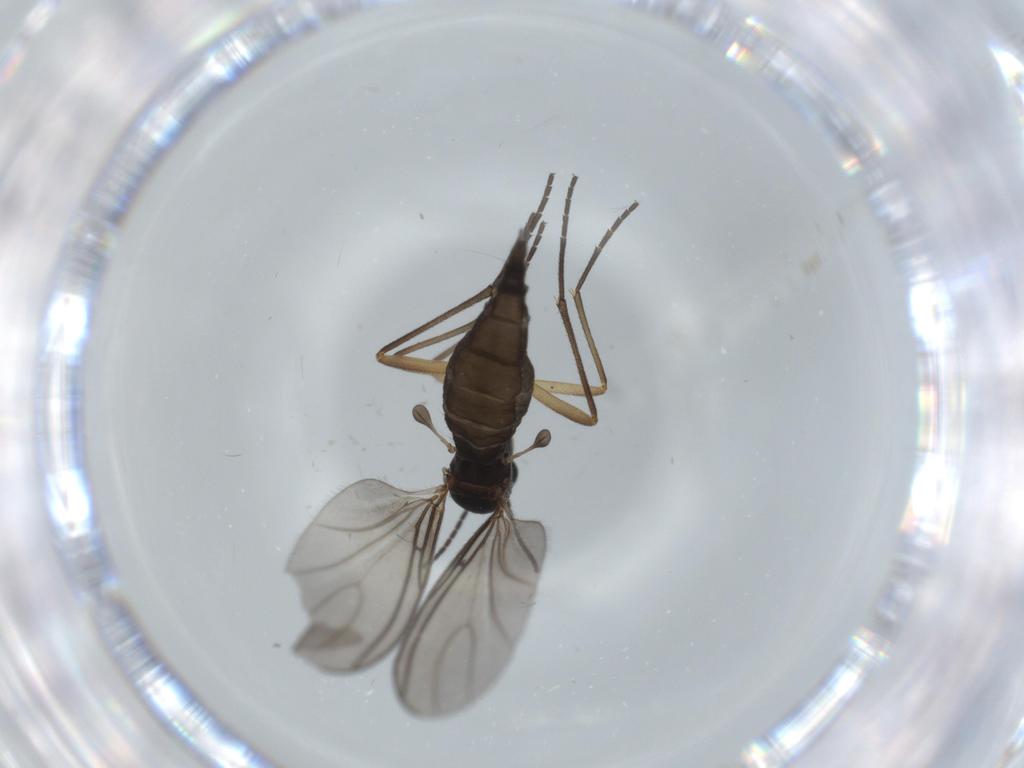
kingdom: Animalia
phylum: Arthropoda
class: Insecta
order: Diptera
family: Sciaridae
